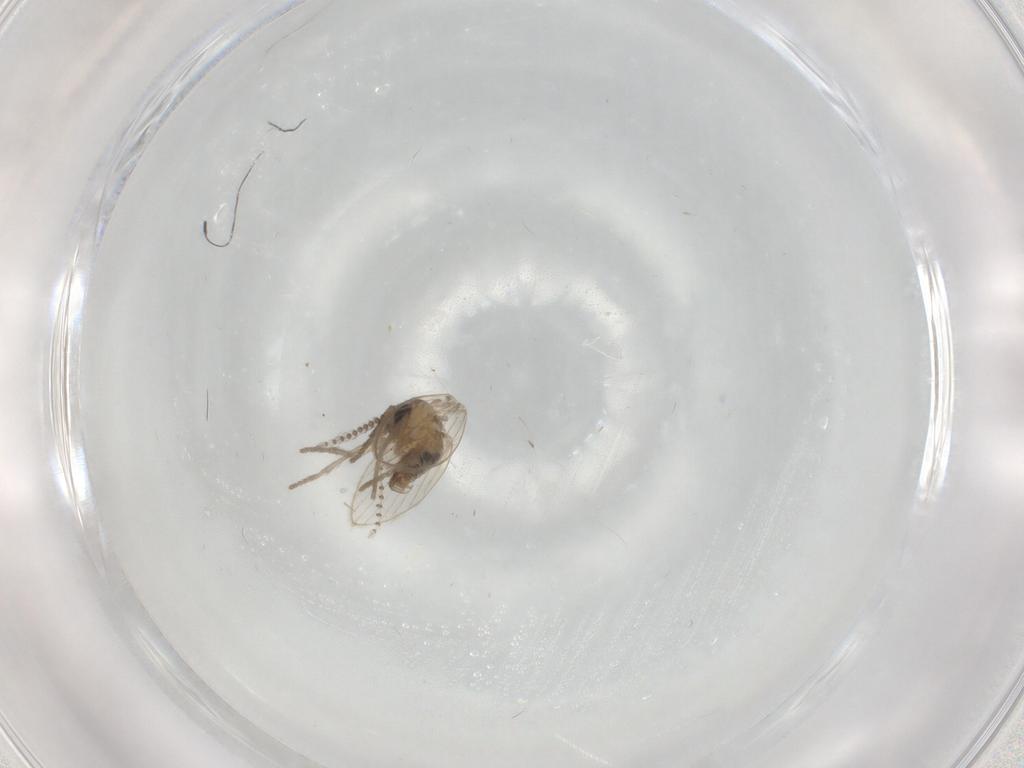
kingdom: Animalia
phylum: Arthropoda
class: Insecta
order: Diptera
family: Psychodidae
